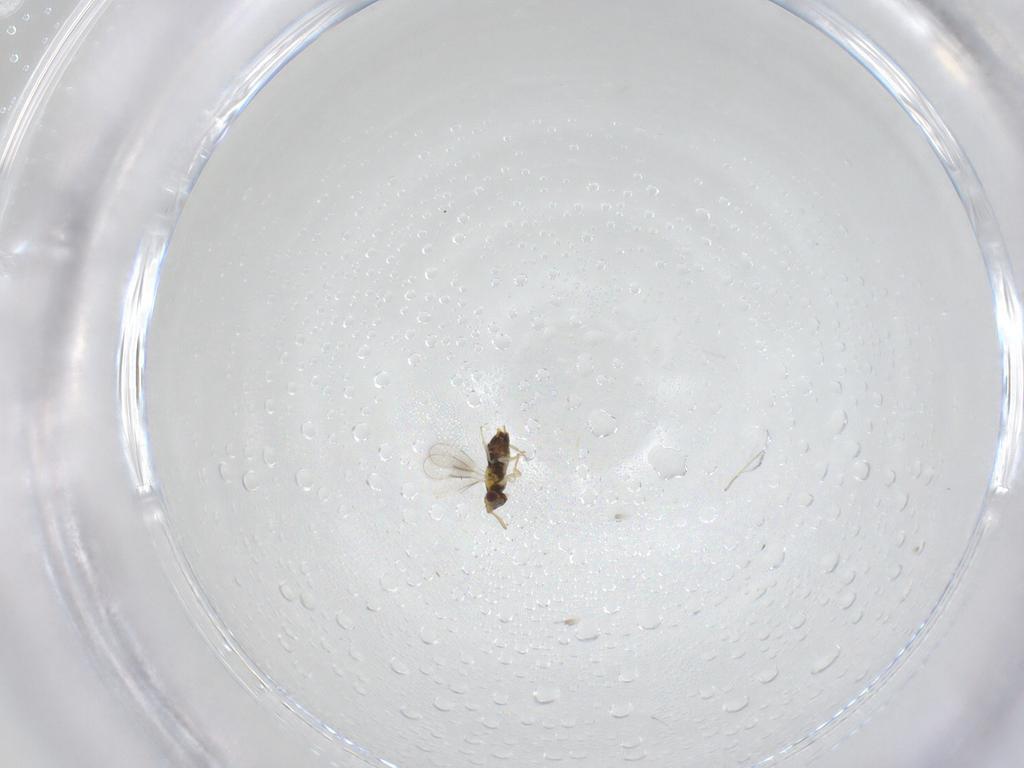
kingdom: Animalia
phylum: Arthropoda
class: Insecta
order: Hymenoptera
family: Aphelinidae
